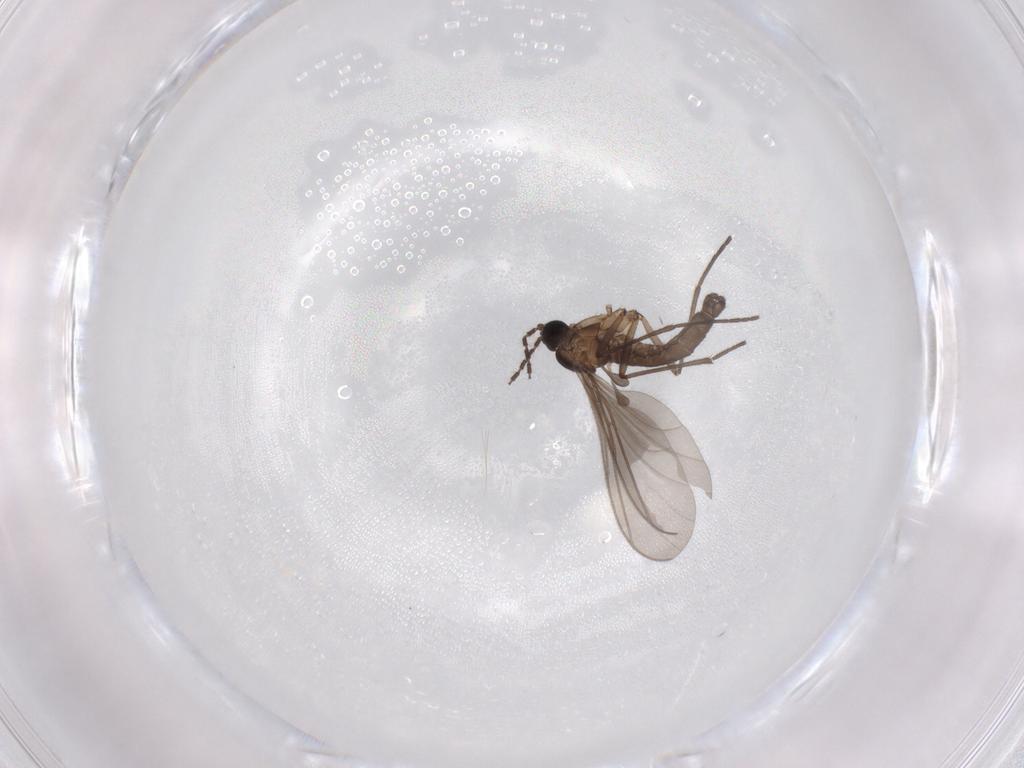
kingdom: Animalia
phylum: Arthropoda
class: Insecta
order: Diptera
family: Sciaridae
